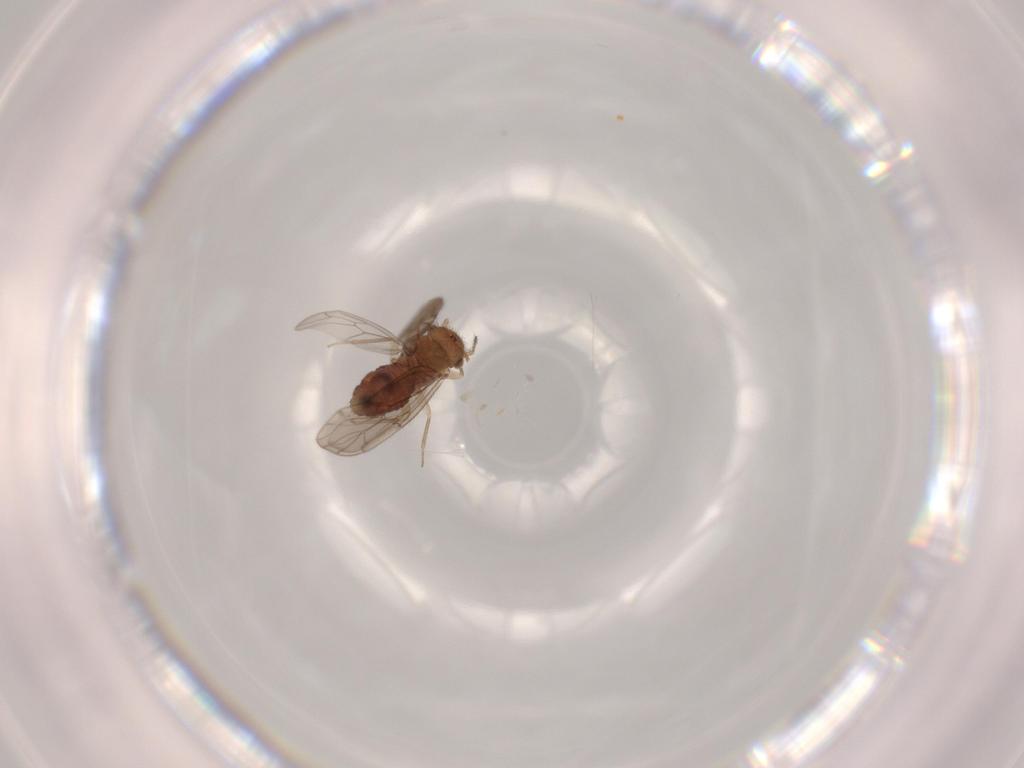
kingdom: Animalia
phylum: Arthropoda
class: Insecta
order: Psocodea
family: Ectopsocidae
